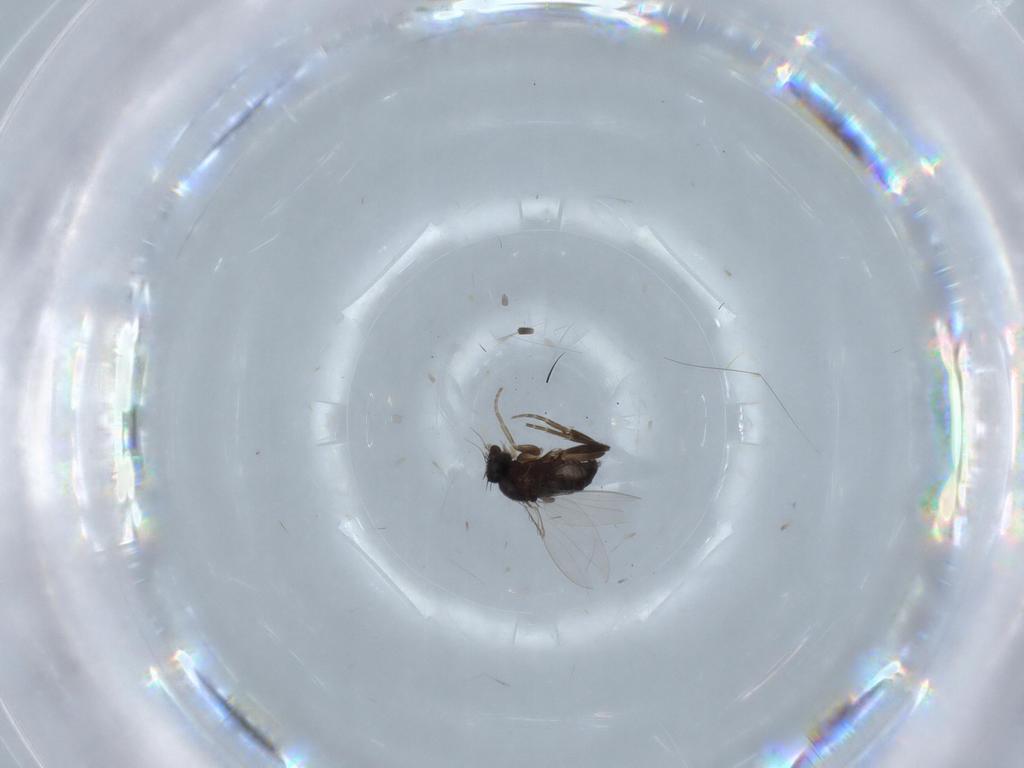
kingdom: Animalia
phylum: Arthropoda
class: Insecta
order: Diptera
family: Phoridae
